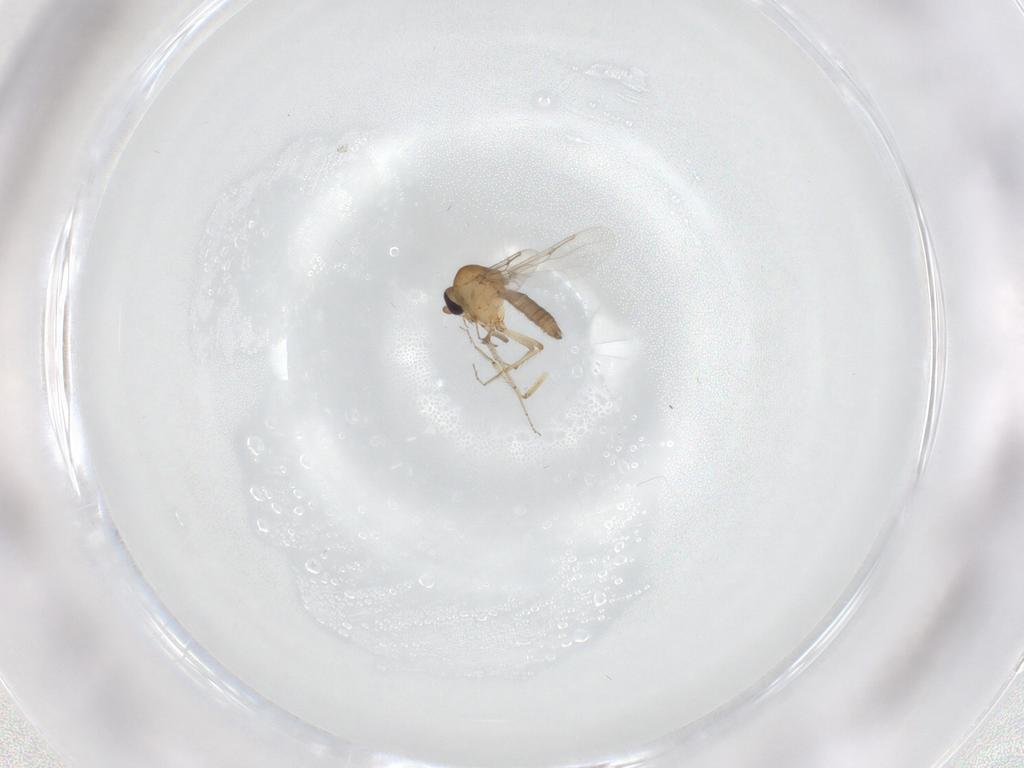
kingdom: Animalia
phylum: Arthropoda
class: Insecta
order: Diptera
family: Ceratopogonidae
